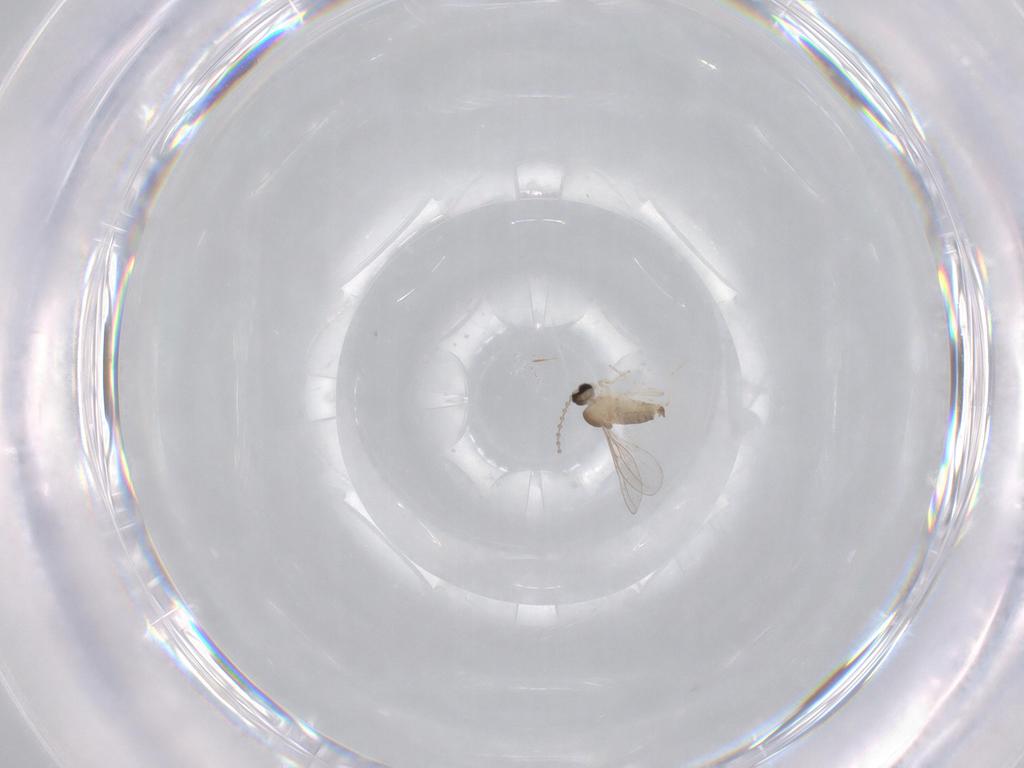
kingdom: Animalia
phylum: Arthropoda
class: Insecta
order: Diptera
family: Cecidomyiidae
